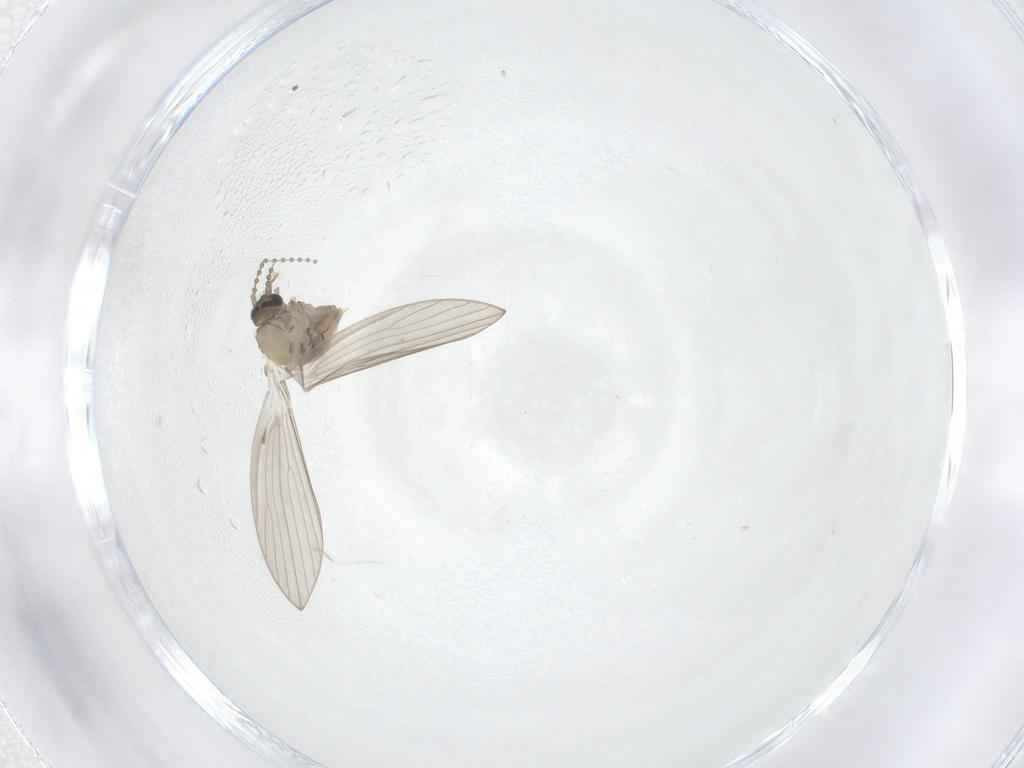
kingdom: Animalia
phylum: Arthropoda
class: Insecta
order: Diptera
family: Psychodidae
